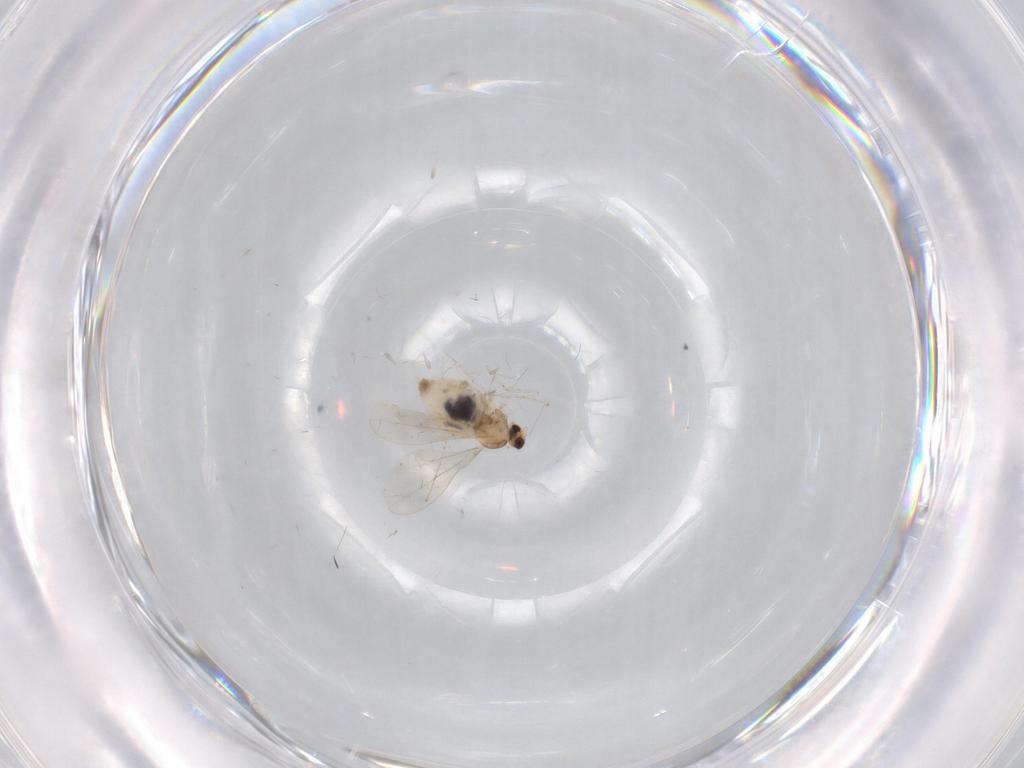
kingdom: Animalia
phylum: Arthropoda
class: Insecta
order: Diptera
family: Cecidomyiidae
